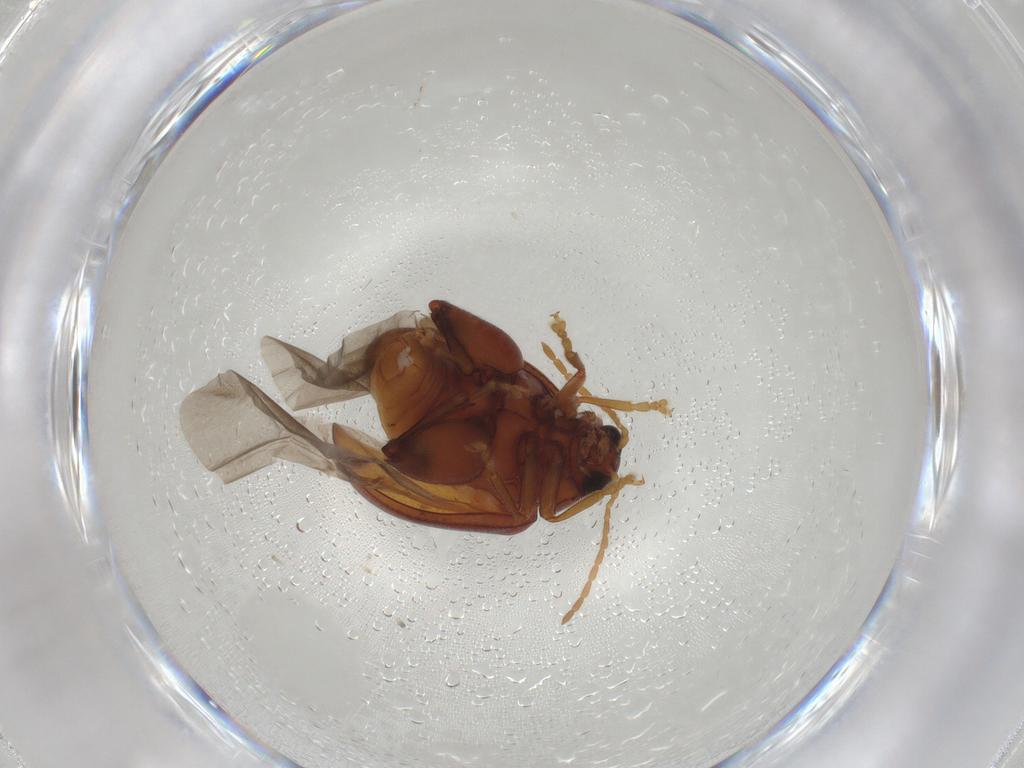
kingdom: Animalia
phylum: Arthropoda
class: Insecta
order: Coleoptera
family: Chrysomelidae
